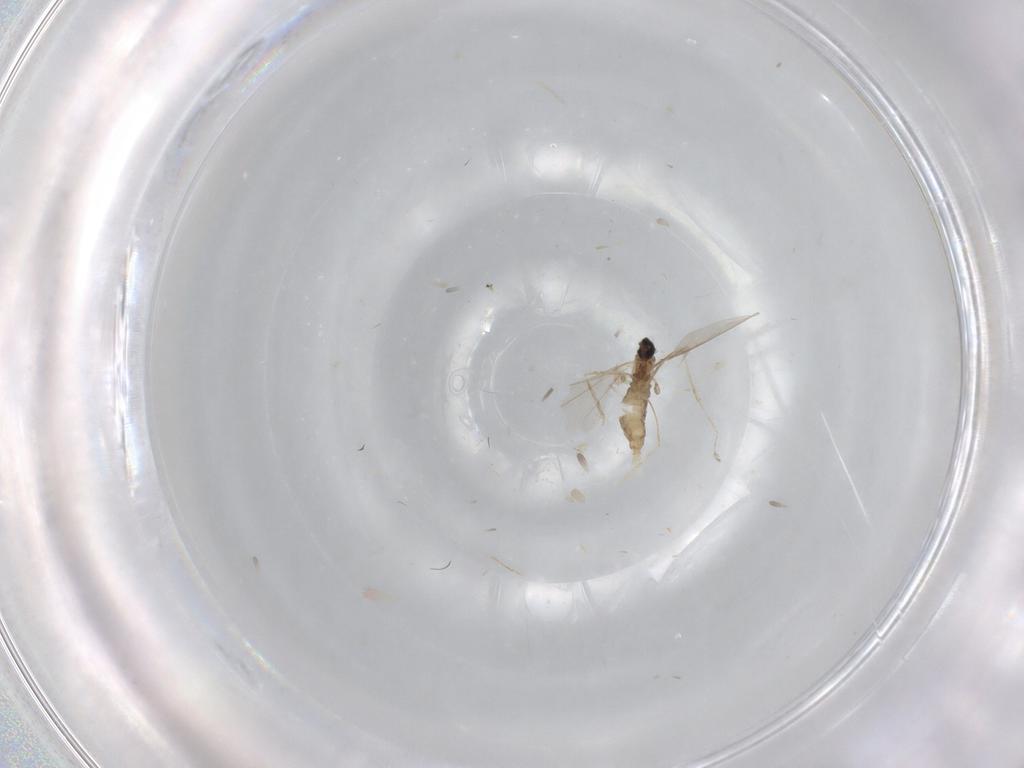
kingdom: Animalia
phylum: Arthropoda
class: Insecta
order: Diptera
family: Cecidomyiidae
